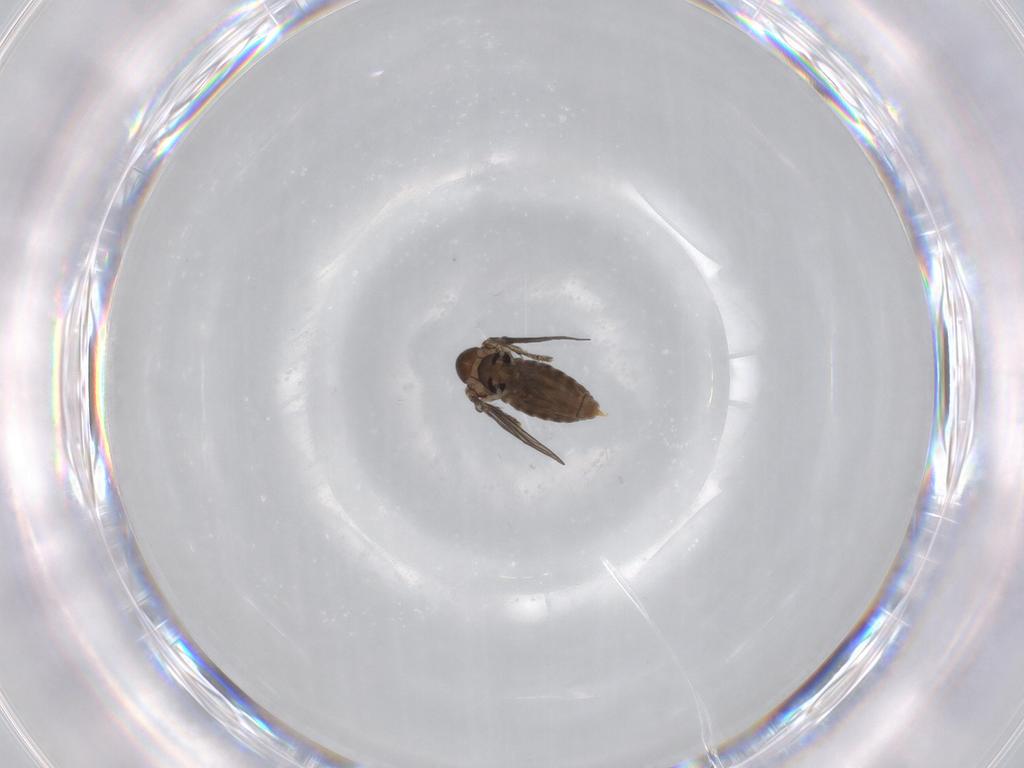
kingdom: Animalia
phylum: Arthropoda
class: Insecta
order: Diptera
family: Psychodidae
